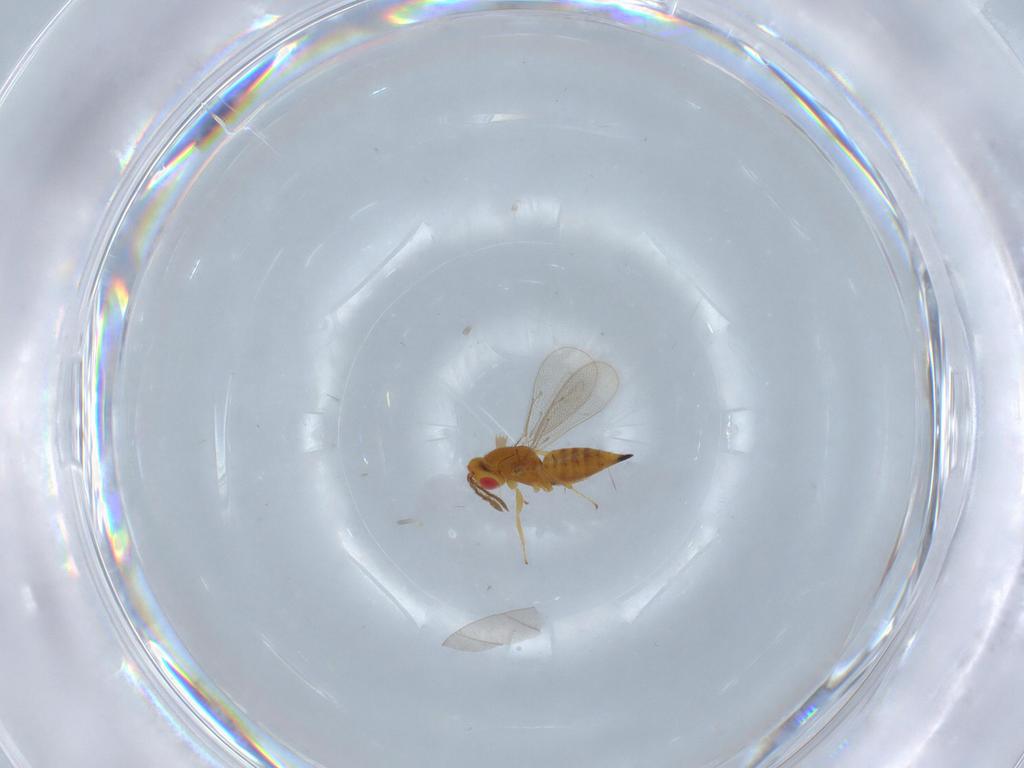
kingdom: Animalia
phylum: Arthropoda
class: Insecta
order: Hymenoptera
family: Eulophidae
